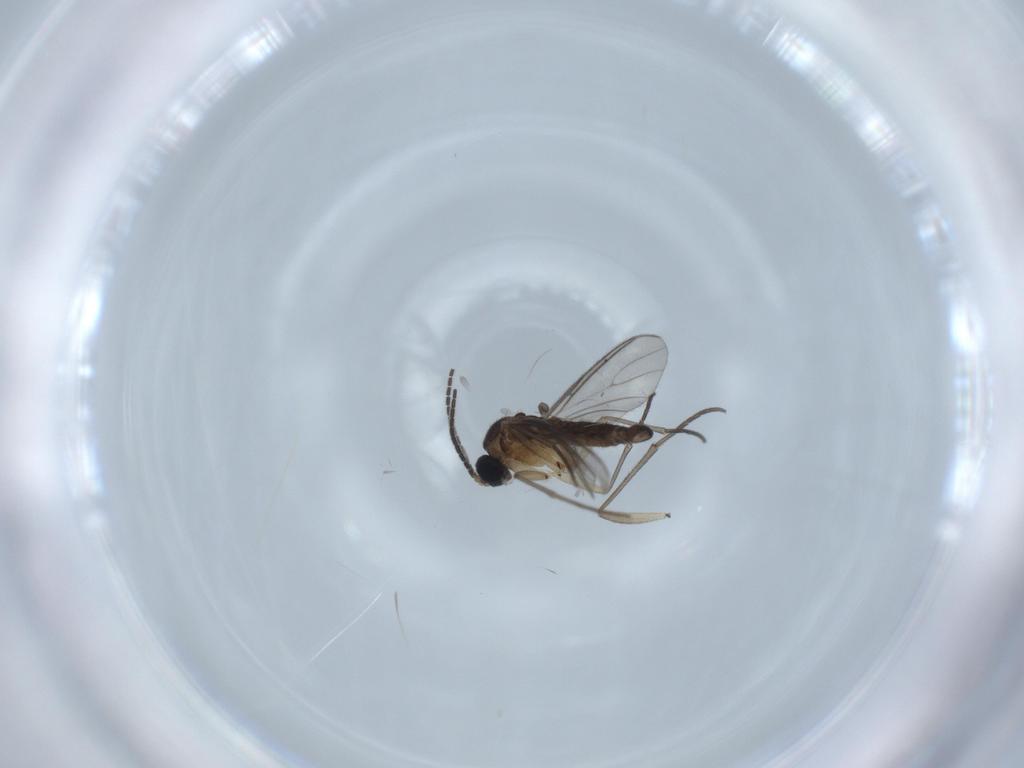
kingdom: Animalia
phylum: Arthropoda
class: Insecta
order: Diptera
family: Sciaridae
